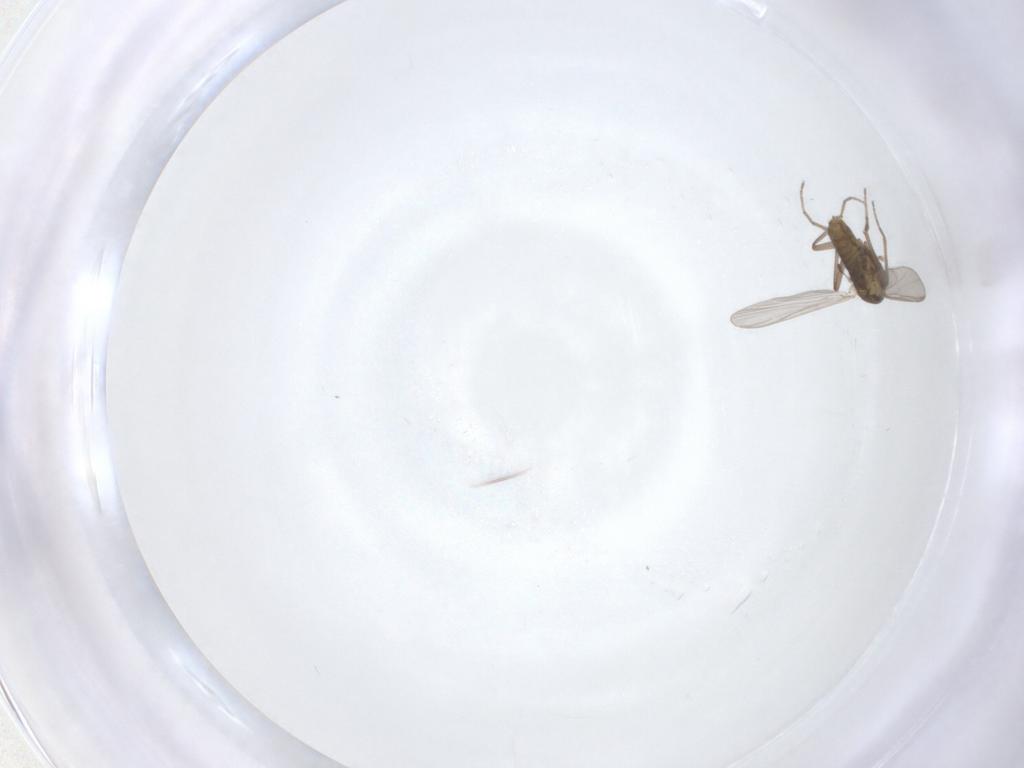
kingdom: Animalia
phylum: Arthropoda
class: Insecta
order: Diptera
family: Chironomidae
